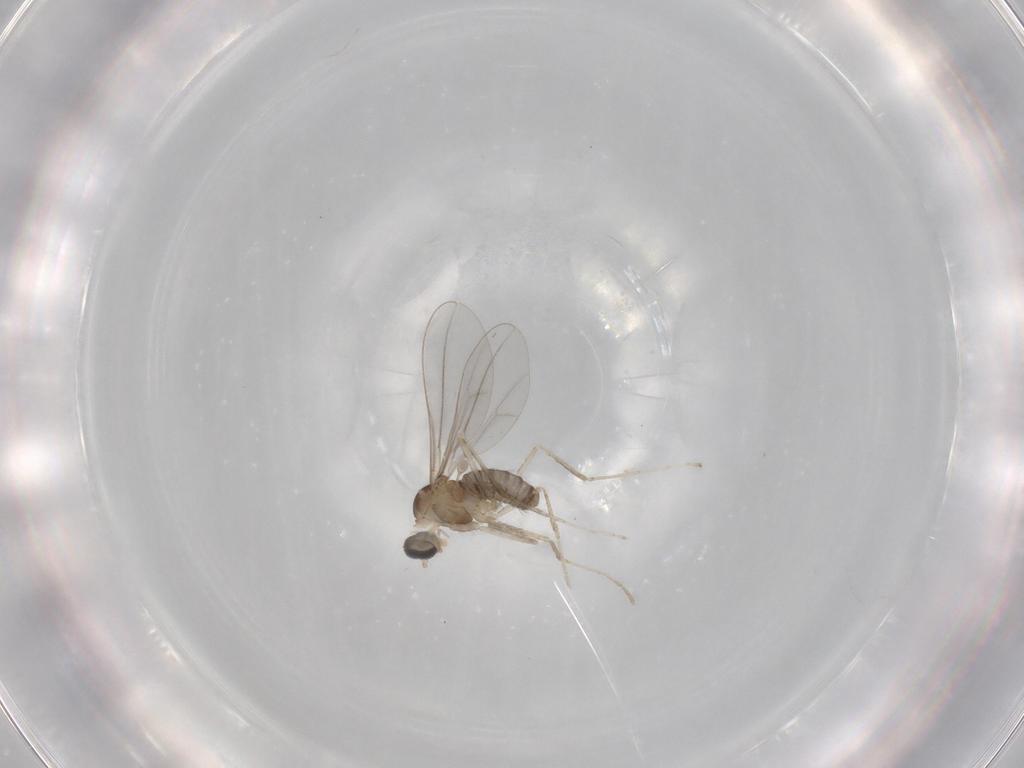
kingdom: Animalia
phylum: Arthropoda
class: Insecta
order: Diptera
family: Cecidomyiidae
